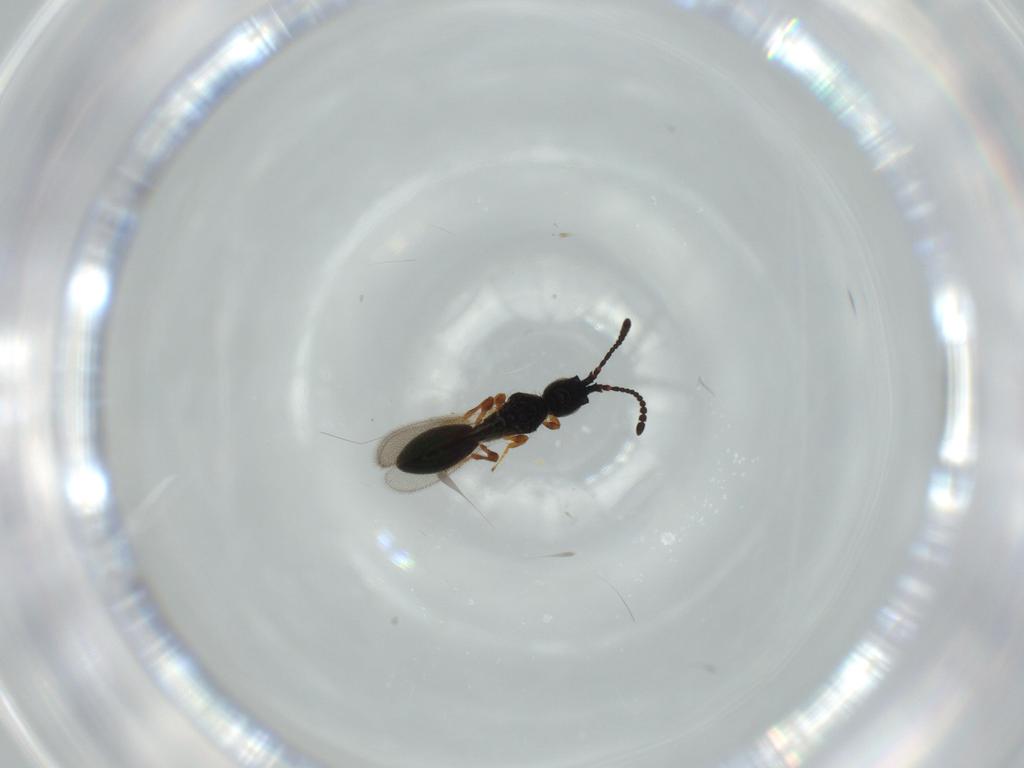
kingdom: Animalia
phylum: Arthropoda
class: Insecta
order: Hymenoptera
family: Diapriidae
